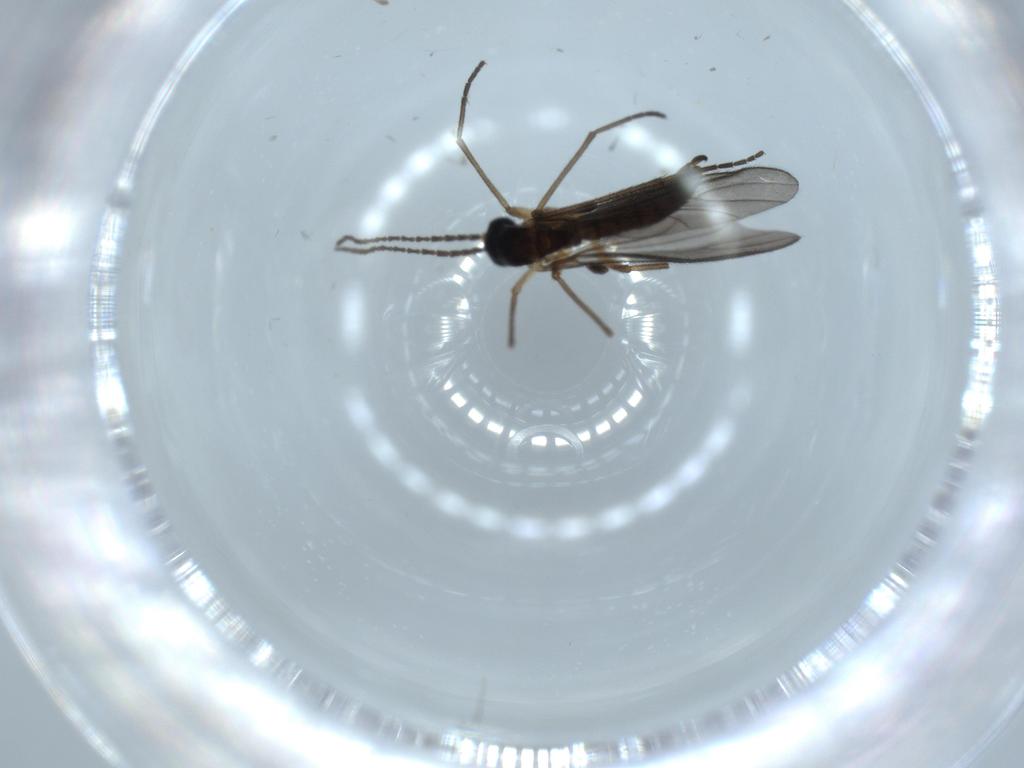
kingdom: Animalia
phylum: Arthropoda
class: Insecta
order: Diptera
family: Sciaridae
